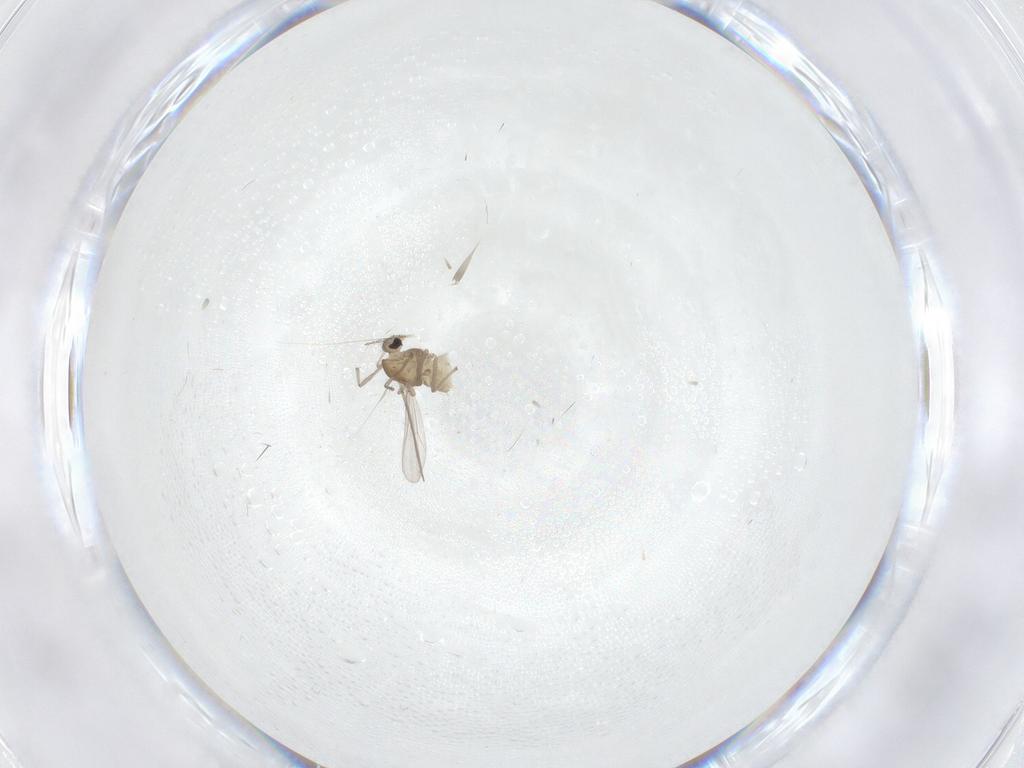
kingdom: Animalia
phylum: Arthropoda
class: Insecta
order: Diptera
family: Chironomidae
